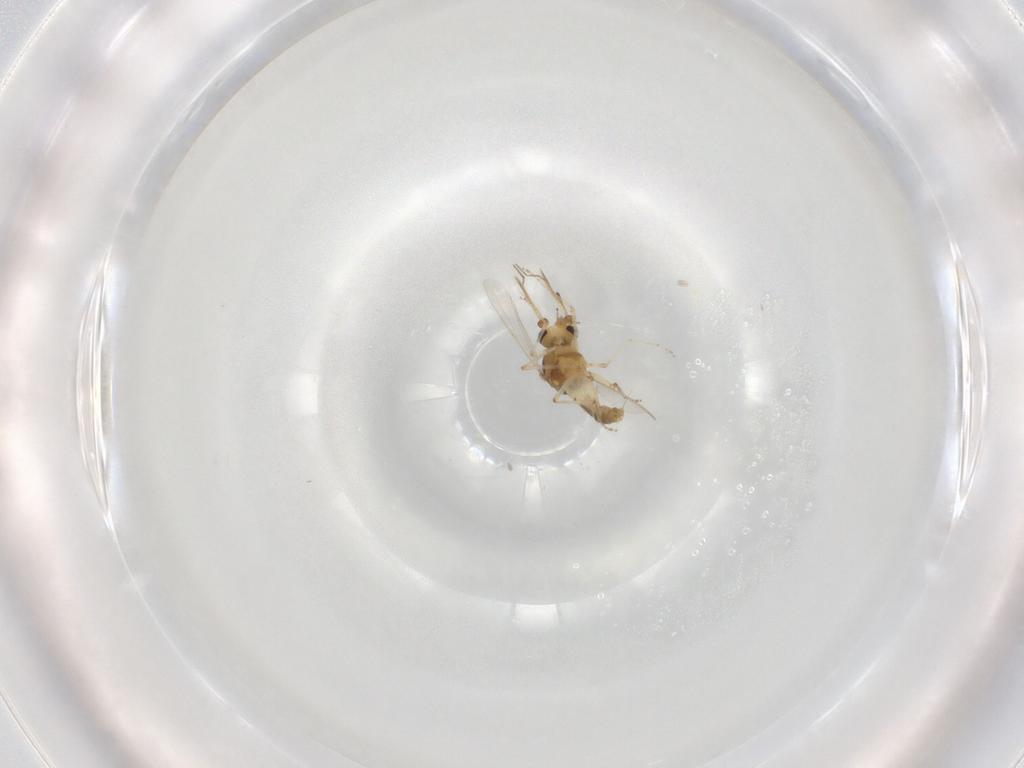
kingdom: Animalia
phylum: Arthropoda
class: Insecta
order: Diptera
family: Ceratopogonidae
